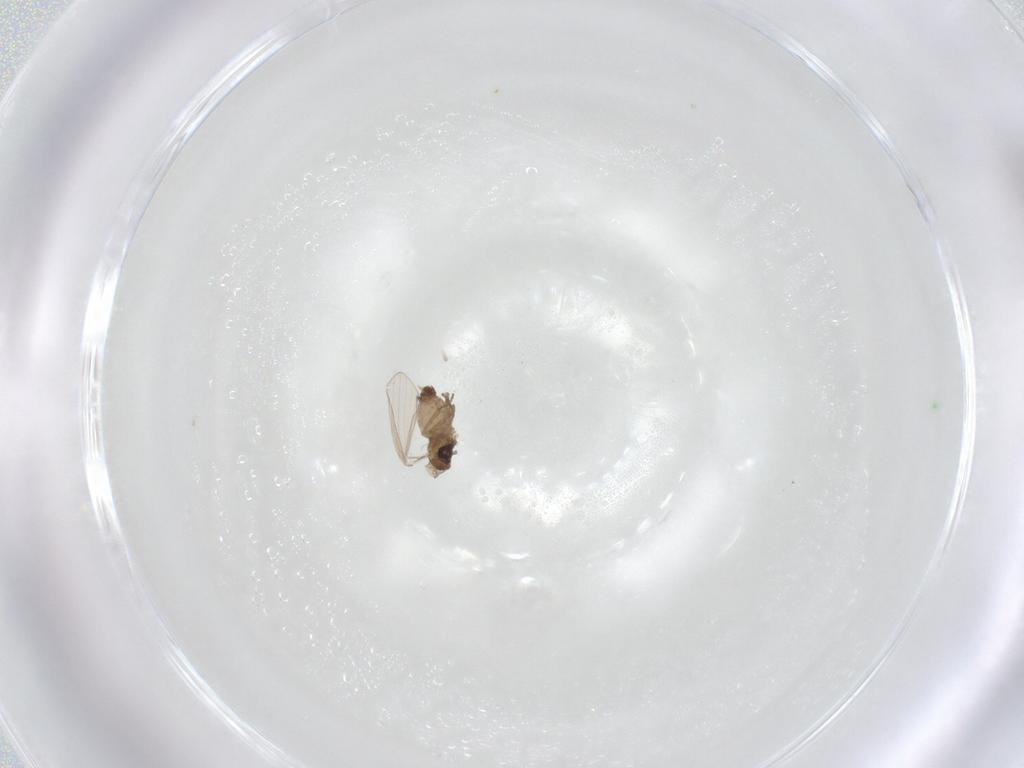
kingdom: Animalia
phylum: Arthropoda
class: Insecta
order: Diptera
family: Psychodidae
